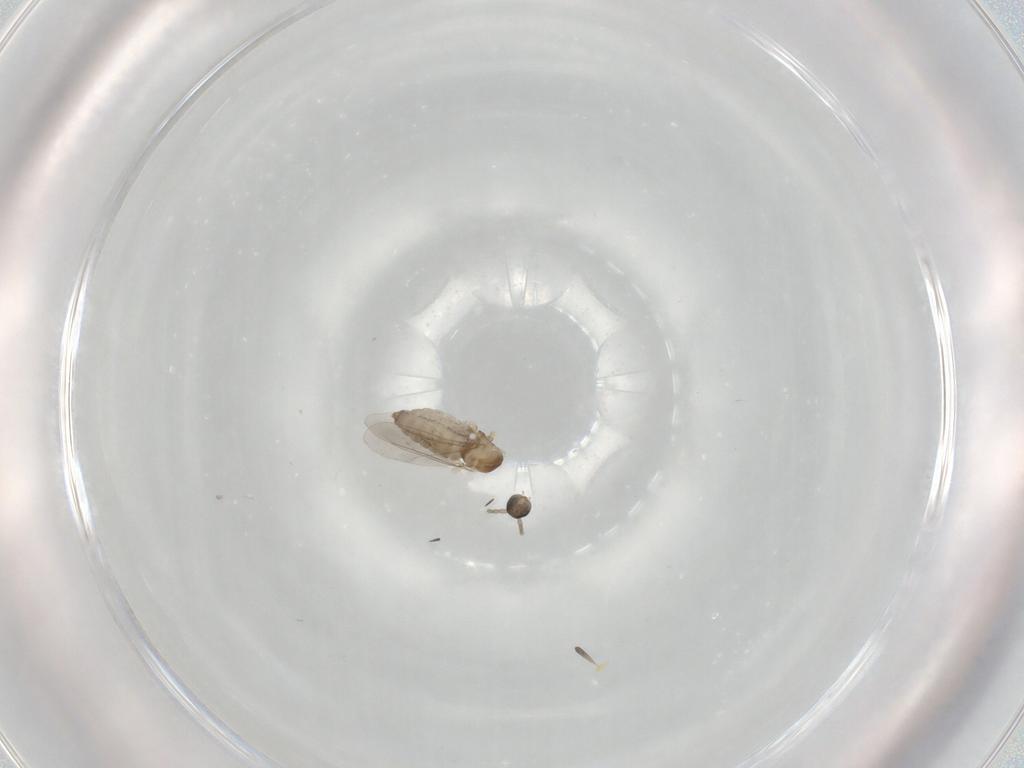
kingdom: Animalia
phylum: Arthropoda
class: Insecta
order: Diptera
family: Cecidomyiidae
